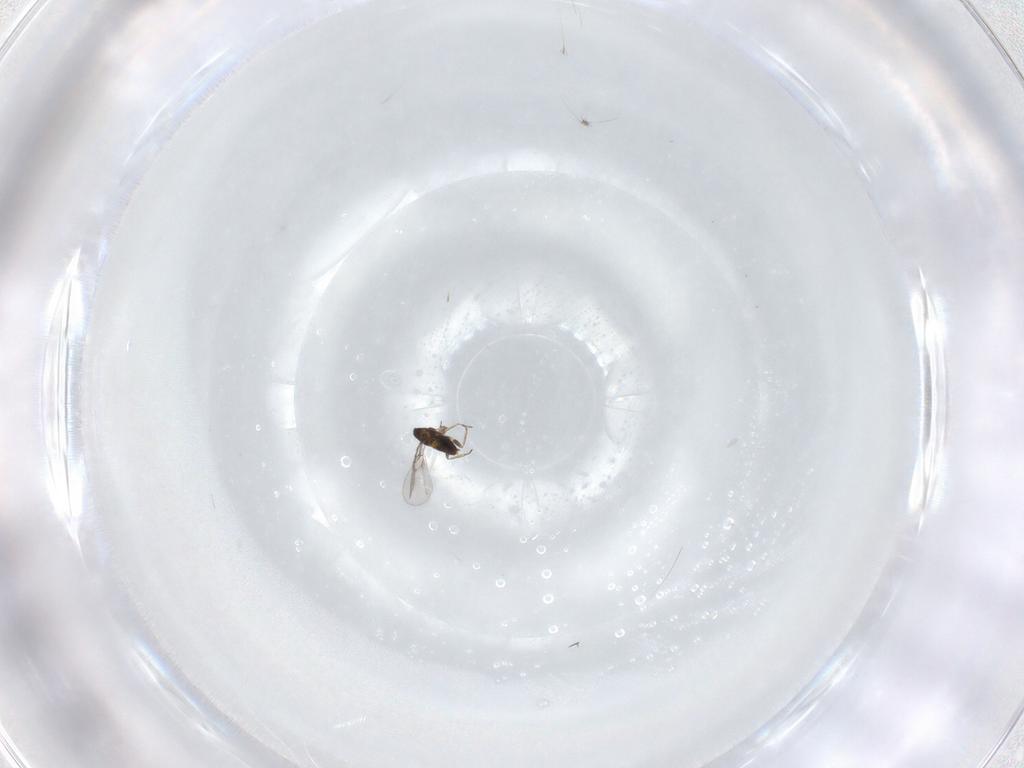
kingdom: Animalia
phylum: Arthropoda
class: Insecta
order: Hymenoptera
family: Trichogrammatidae
